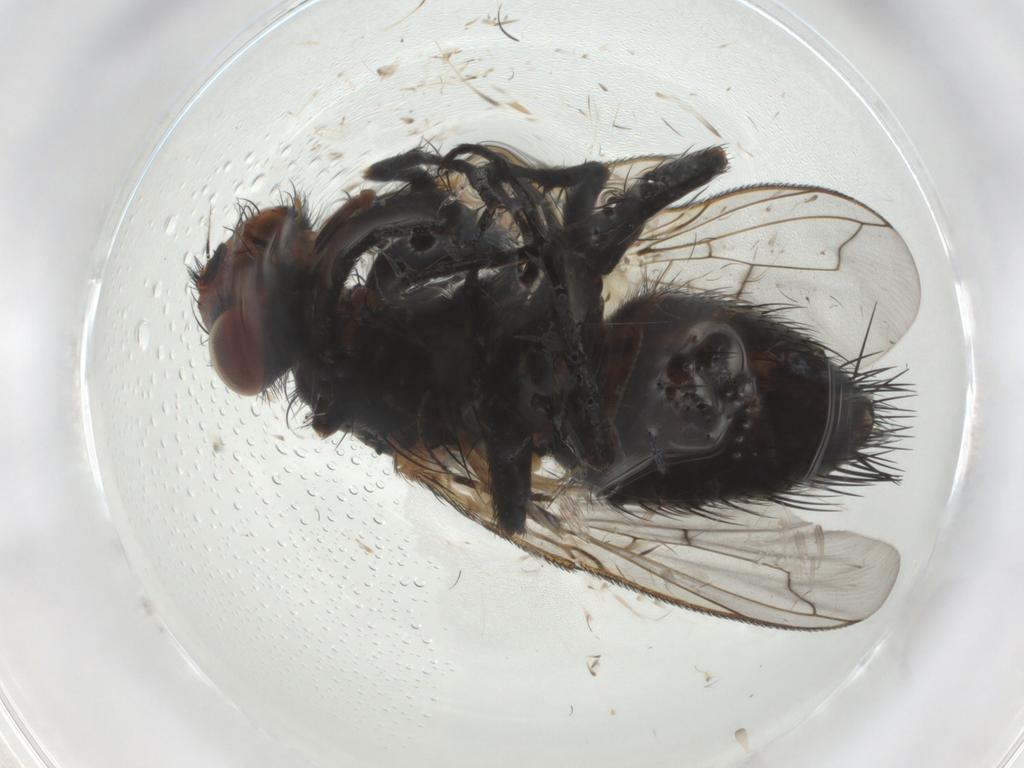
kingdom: Animalia
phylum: Arthropoda
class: Insecta
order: Diptera
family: Tachinidae
